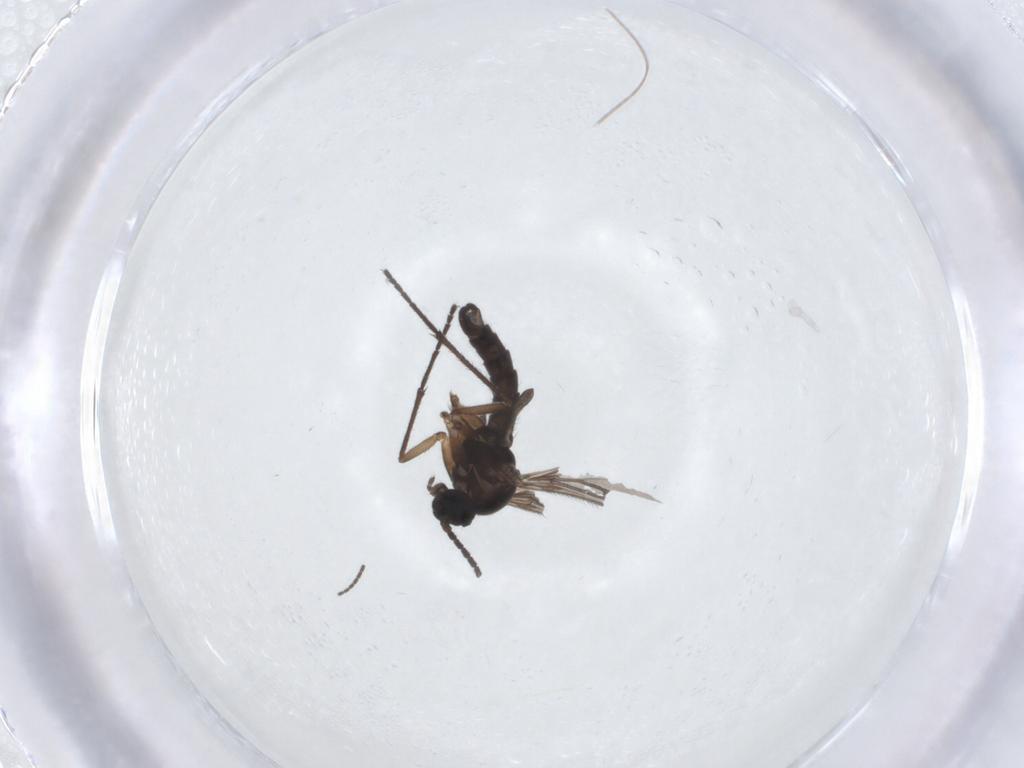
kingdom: Animalia
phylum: Arthropoda
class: Insecta
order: Diptera
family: Sciaridae
